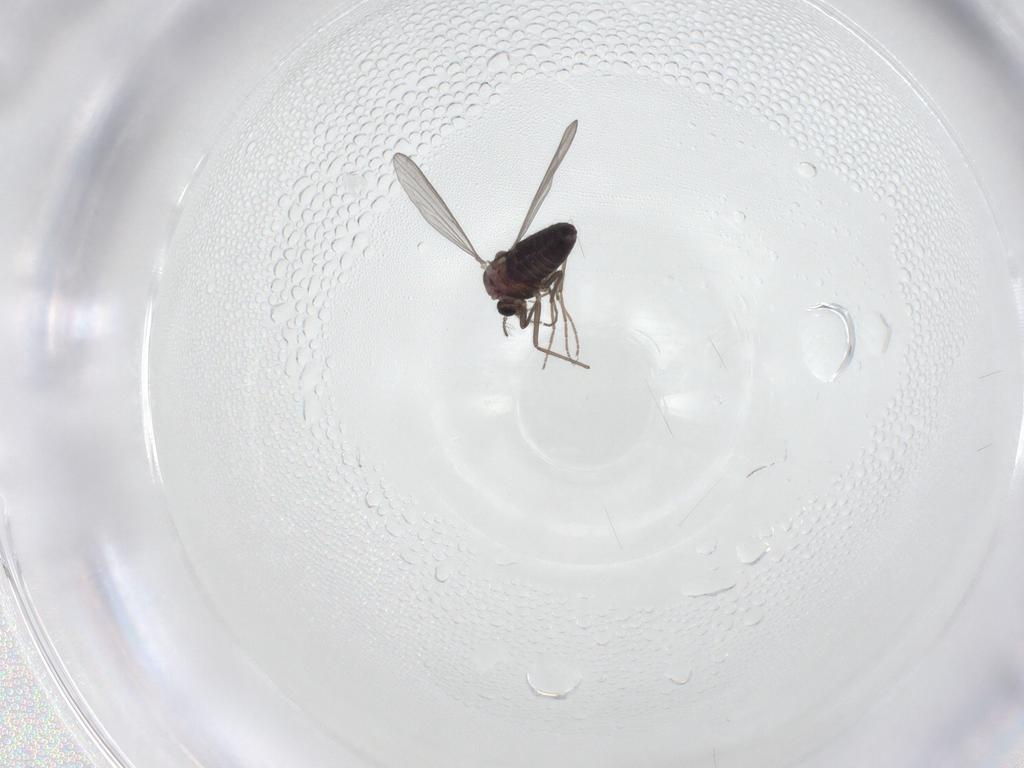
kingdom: Animalia
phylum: Arthropoda
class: Insecta
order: Diptera
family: Chironomidae
